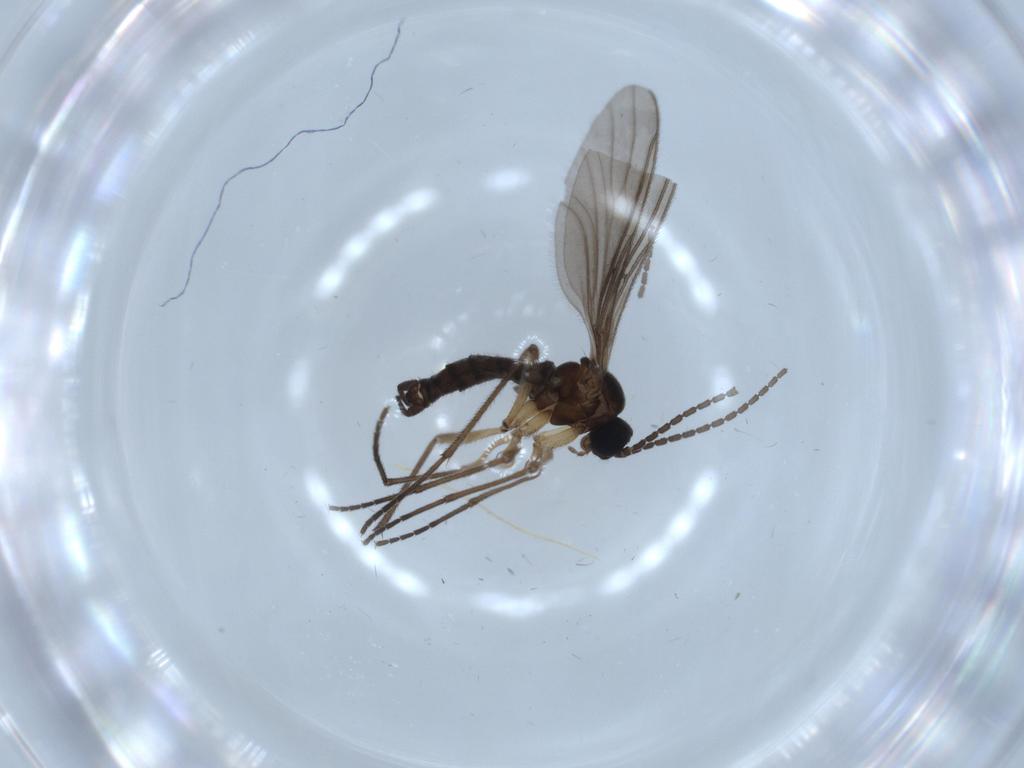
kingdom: Animalia
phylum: Arthropoda
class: Insecta
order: Diptera
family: Sciaridae
